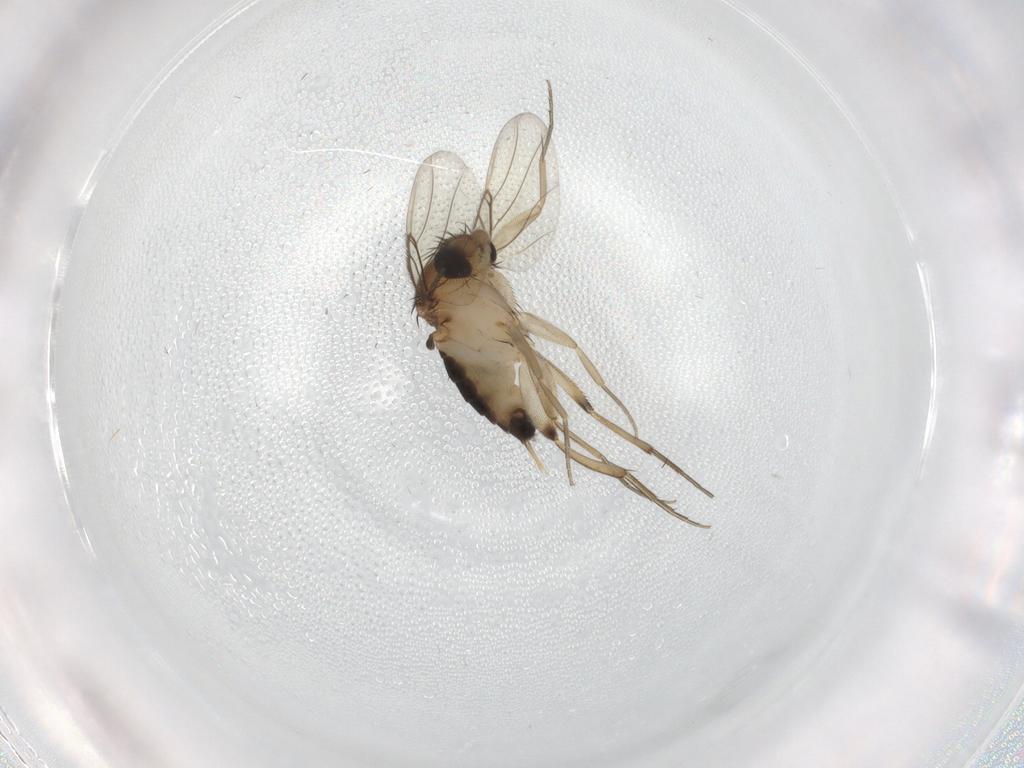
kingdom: Animalia
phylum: Arthropoda
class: Insecta
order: Diptera
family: Phoridae
